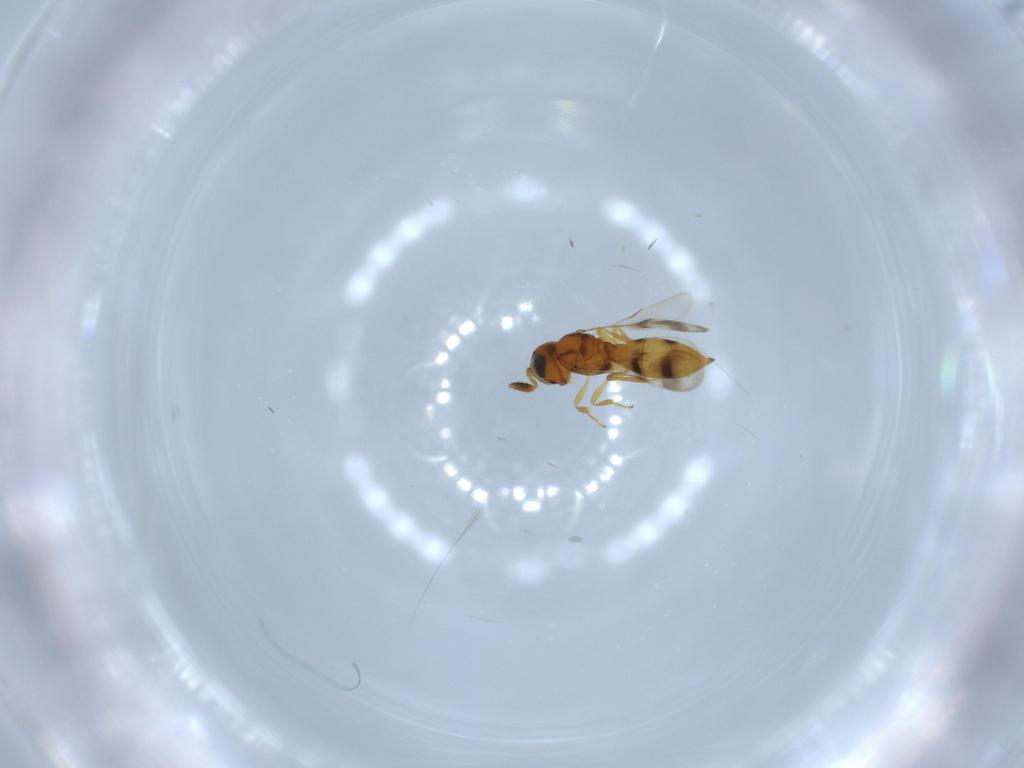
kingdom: Animalia
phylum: Arthropoda
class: Insecta
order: Hymenoptera
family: Scelionidae
